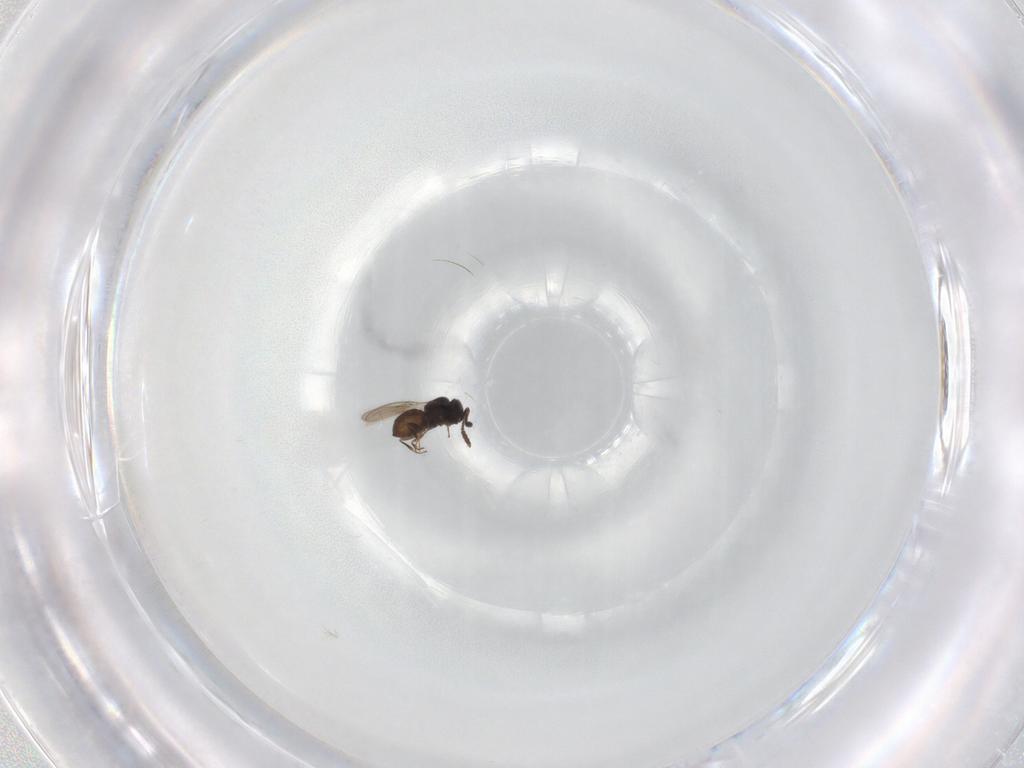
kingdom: Animalia
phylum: Arthropoda
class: Insecta
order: Hymenoptera
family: Scelionidae
